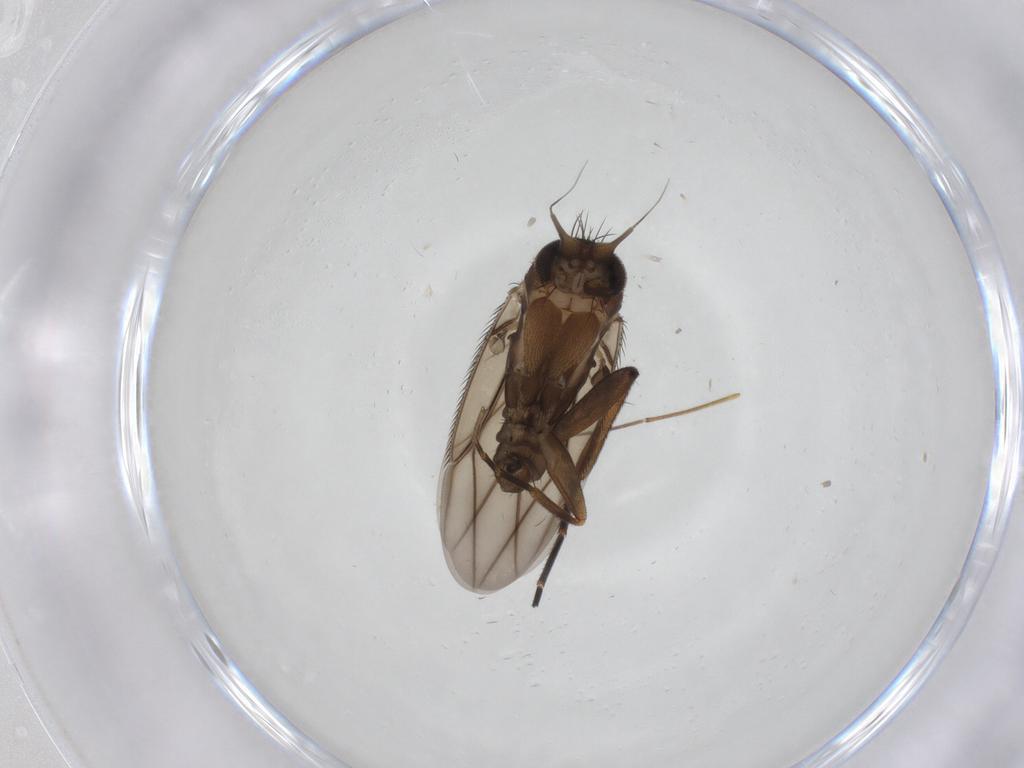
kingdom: Animalia
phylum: Arthropoda
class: Insecta
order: Diptera
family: Phoridae
